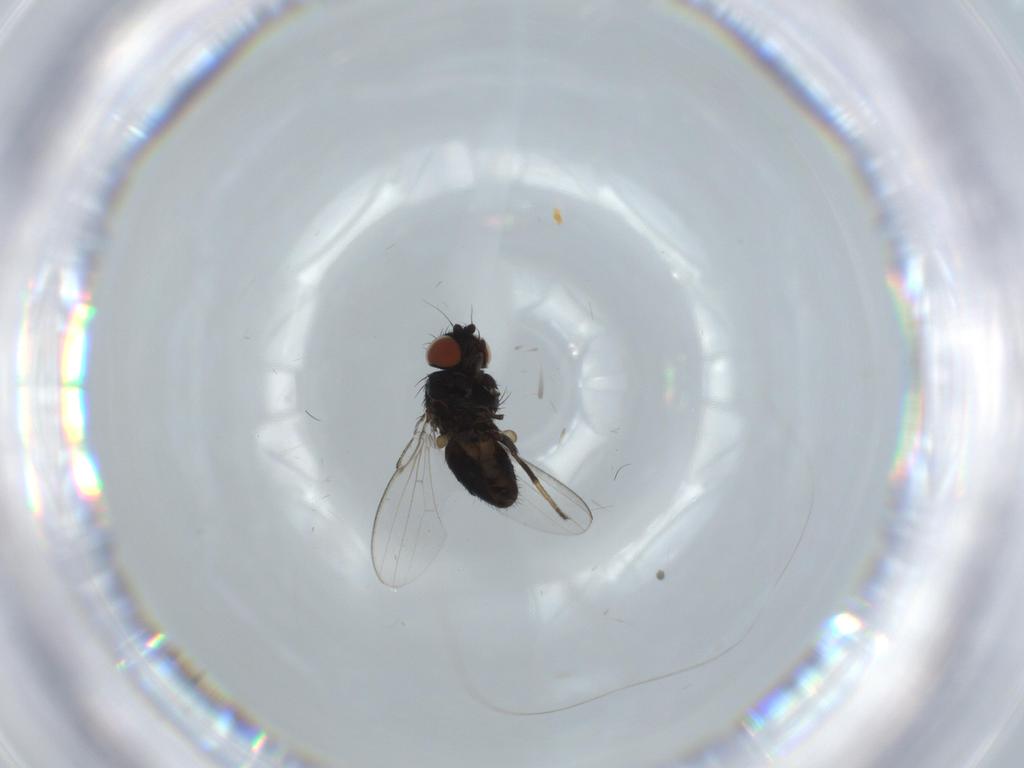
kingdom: Animalia
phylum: Arthropoda
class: Insecta
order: Diptera
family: Milichiidae
